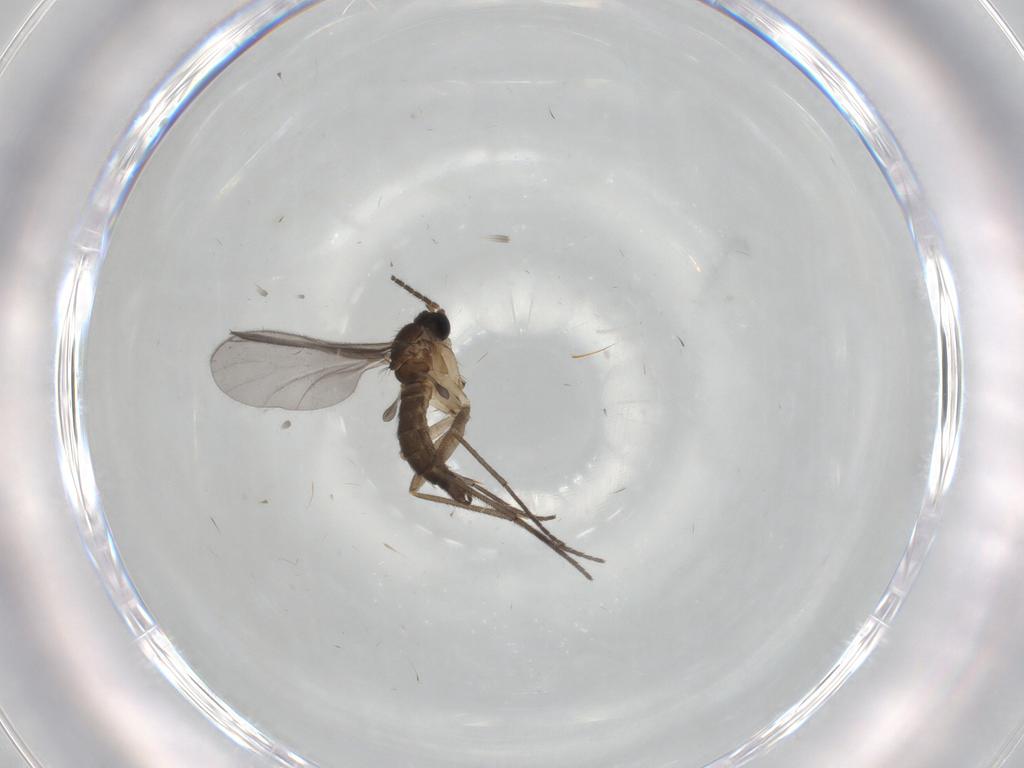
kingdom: Animalia
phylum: Arthropoda
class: Insecta
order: Diptera
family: Sciaridae
